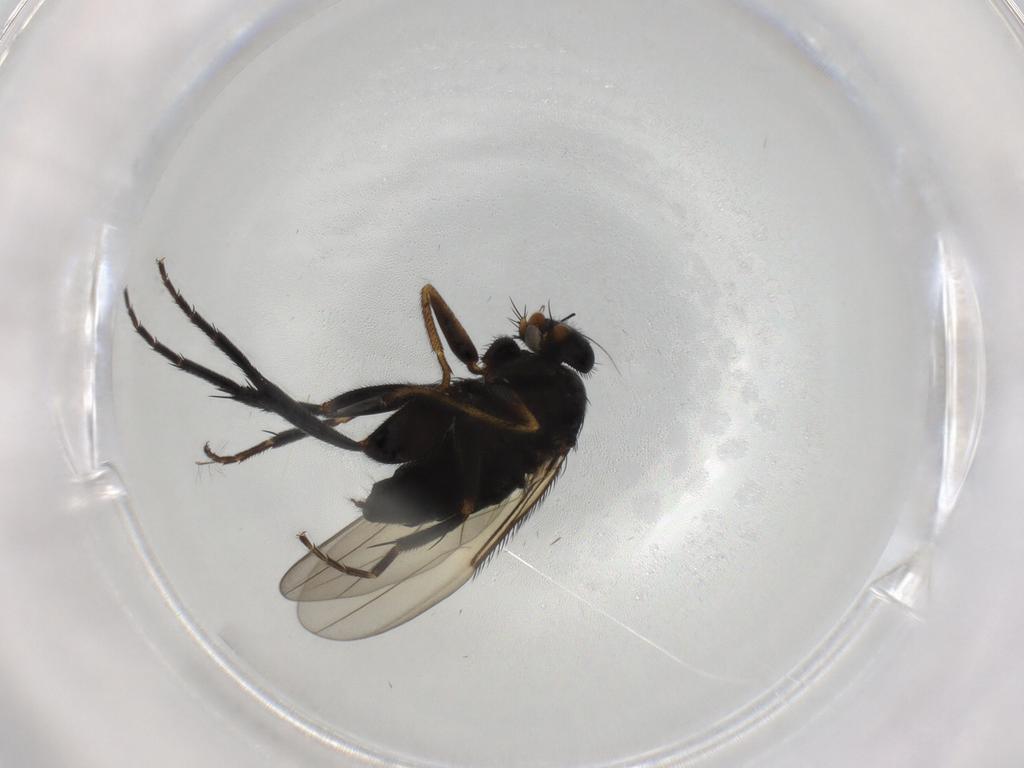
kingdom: Animalia
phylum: Arthropoda
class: Insecta
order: Diptera
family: Phoridae
